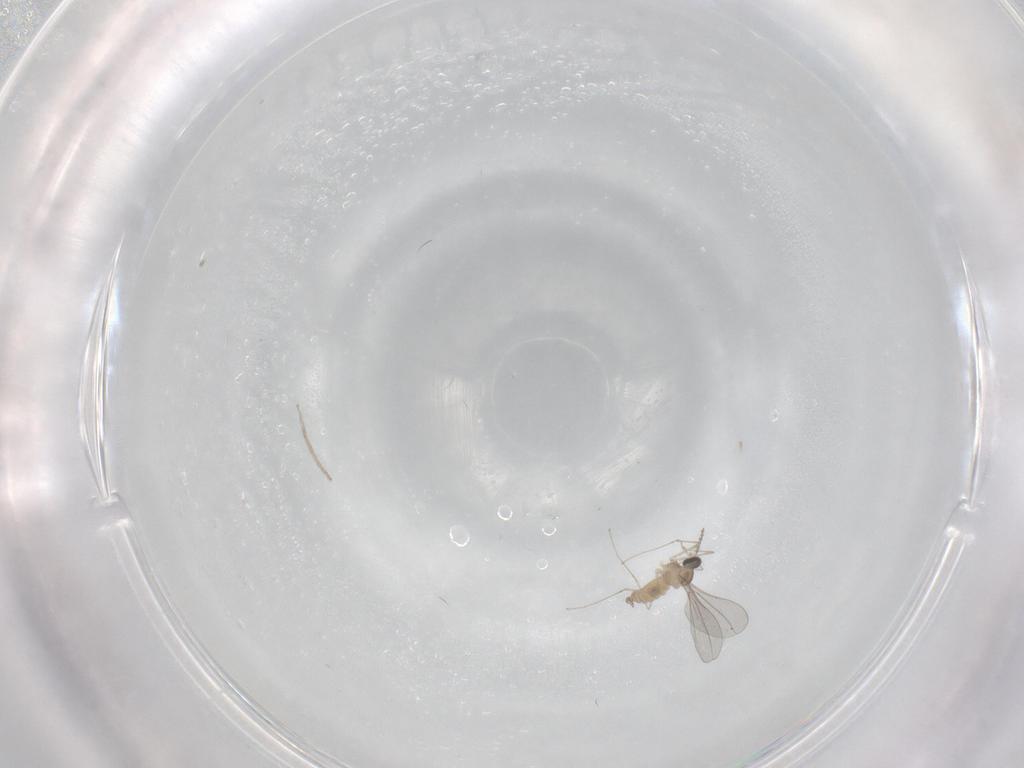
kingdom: Animalia
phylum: Arthropoda
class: Insecta
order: Diptera
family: Cecidomyiidae
